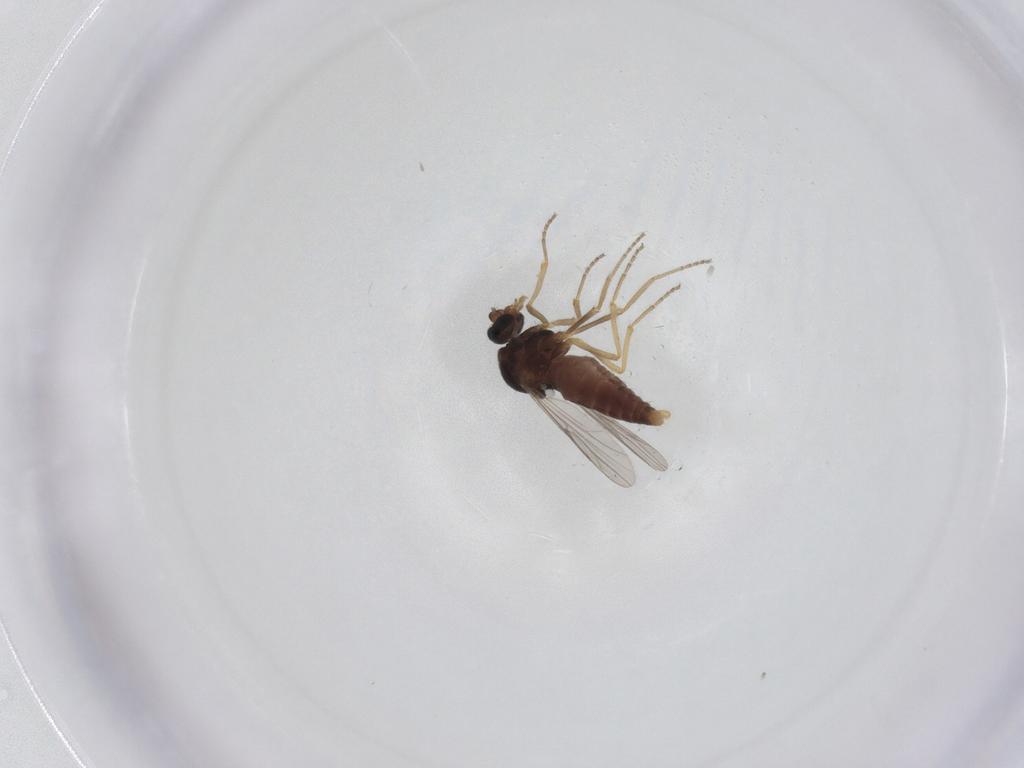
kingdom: Animalia
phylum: Arthropoda
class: Insecta
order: Diptera
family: Ceratopogonidae
